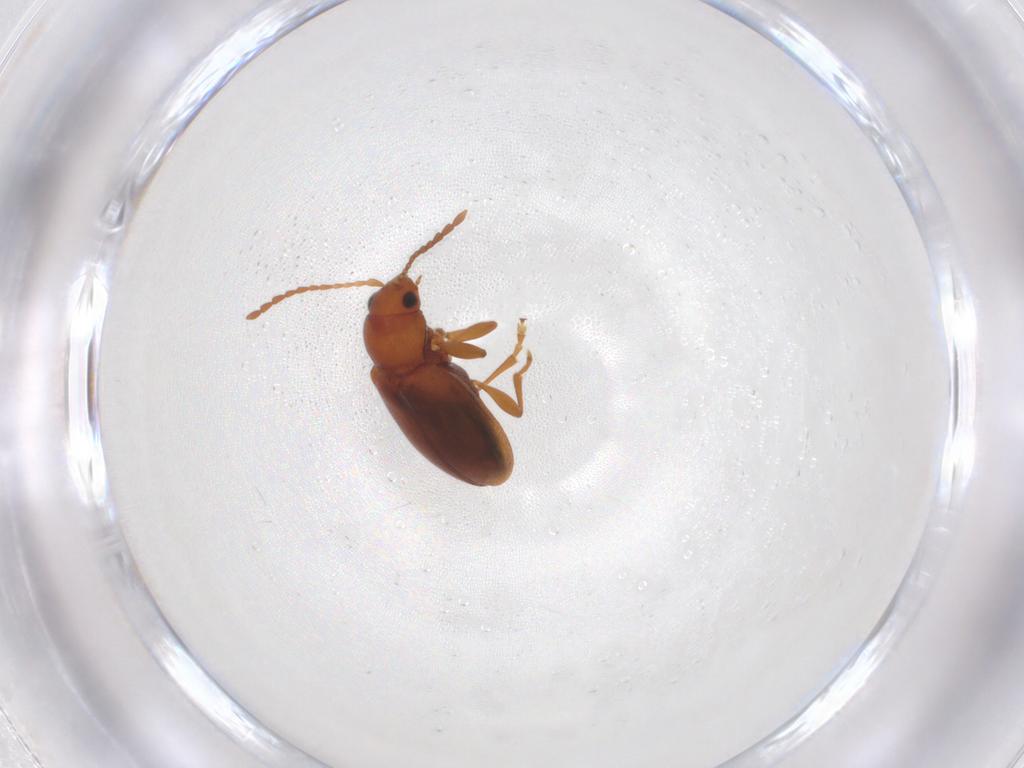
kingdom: Animalia
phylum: Arthropoda
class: Insecta
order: Coleoptera
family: Chrysomelidae
